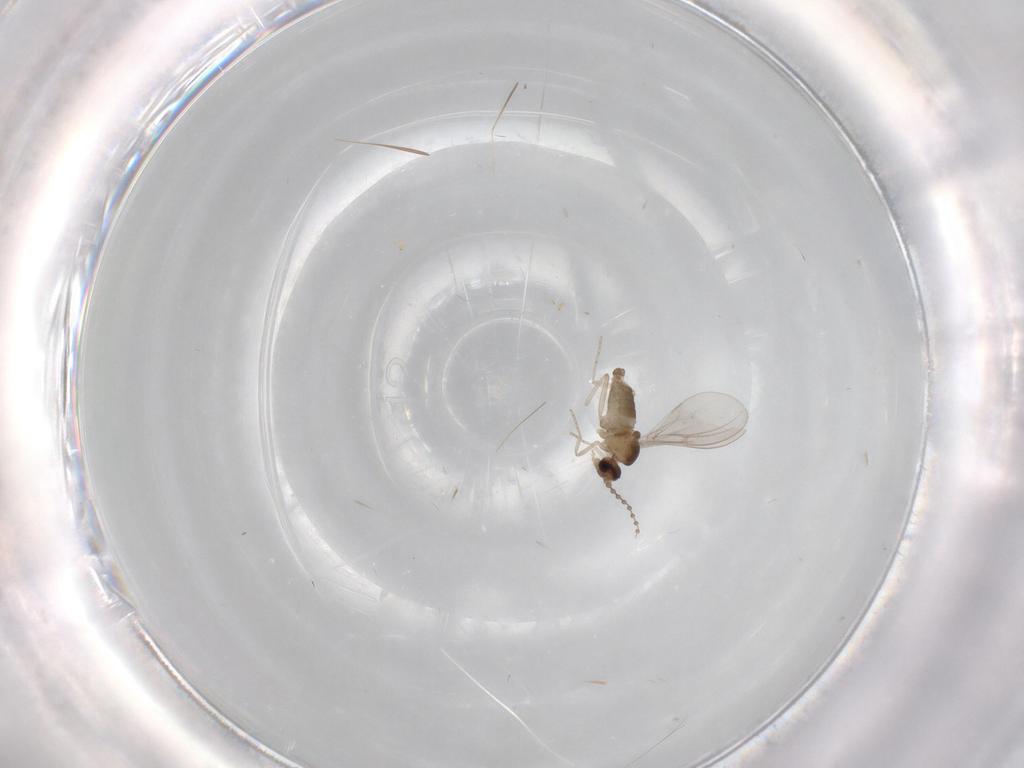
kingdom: Animalia
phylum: Arthropoda
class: Insecta
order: Diptera
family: Cecidomyiidae
